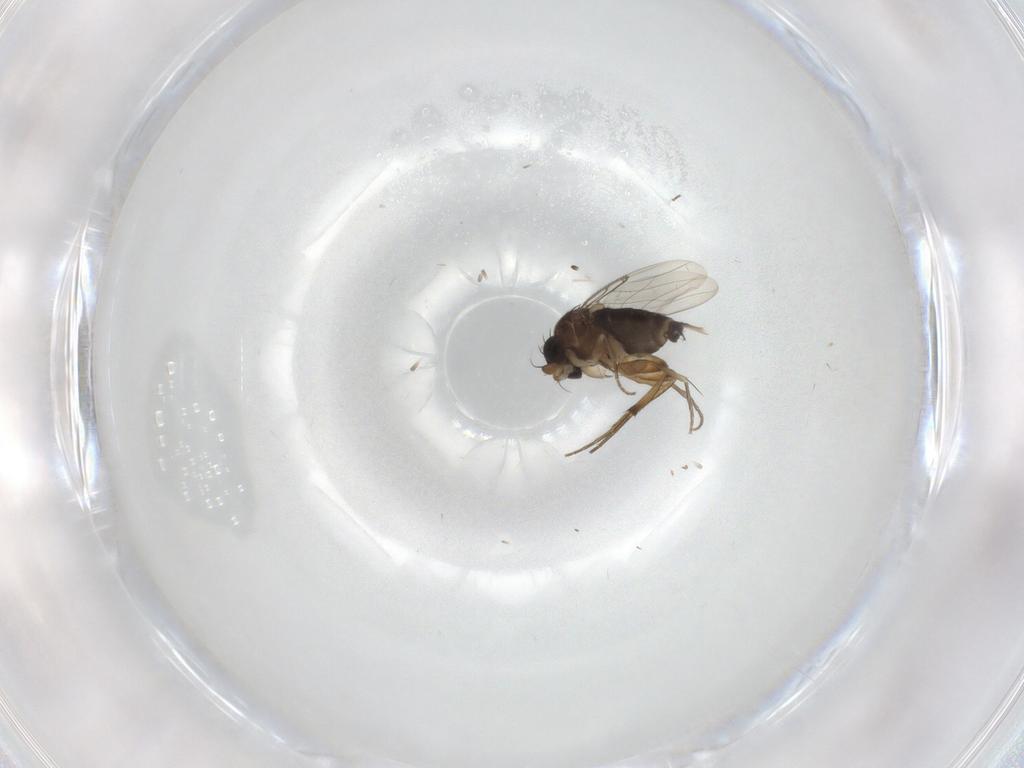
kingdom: Animalia
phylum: Arthropoda
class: Insecta
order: Diptera
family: Phoridae
